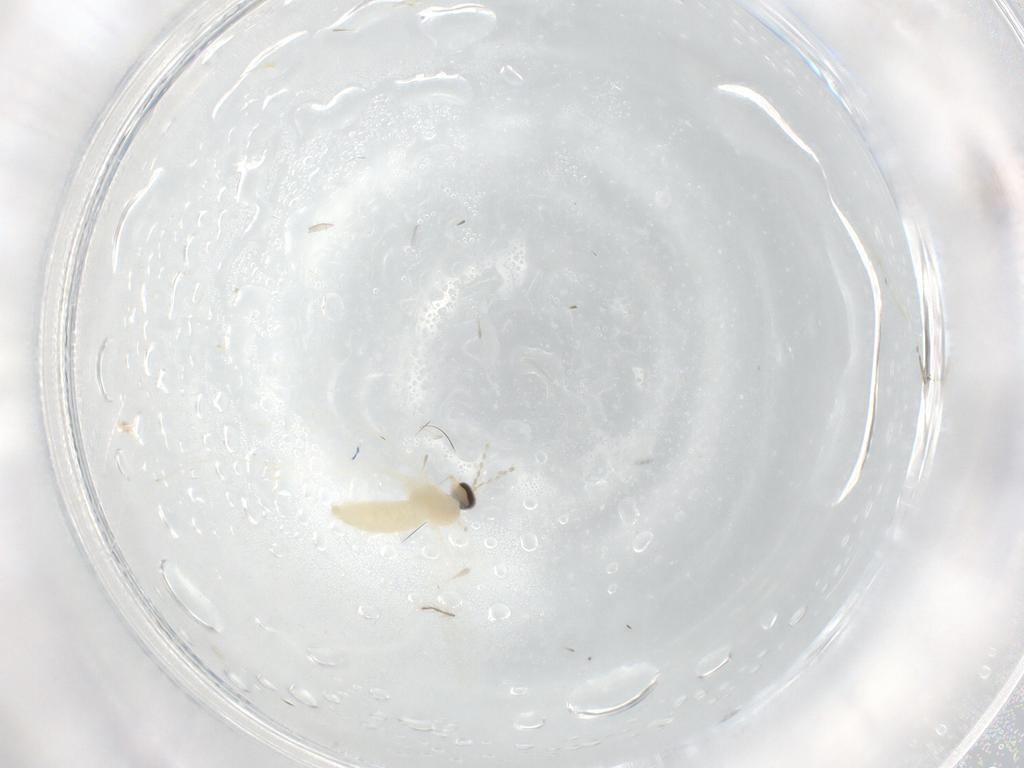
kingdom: Animalia
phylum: Arthropoda
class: Insecta
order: Diptera
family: Cecidomyiidae
